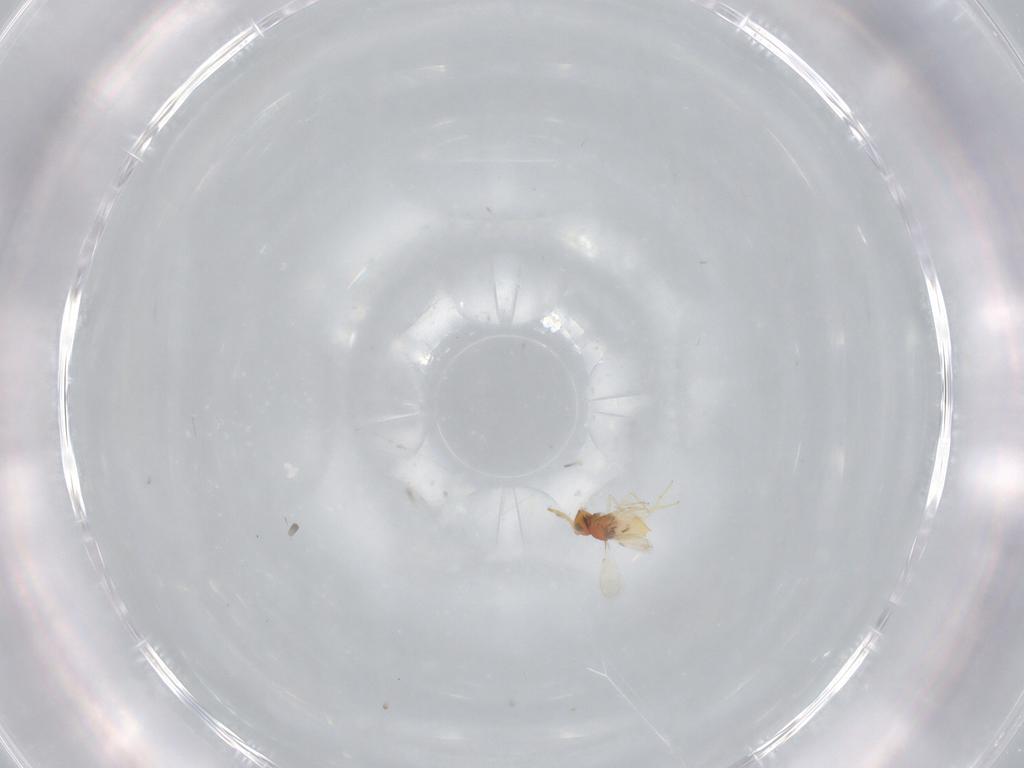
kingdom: Animalia
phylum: Arthropoda
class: Insecta
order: Hymenoptera
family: Aphelinidae
